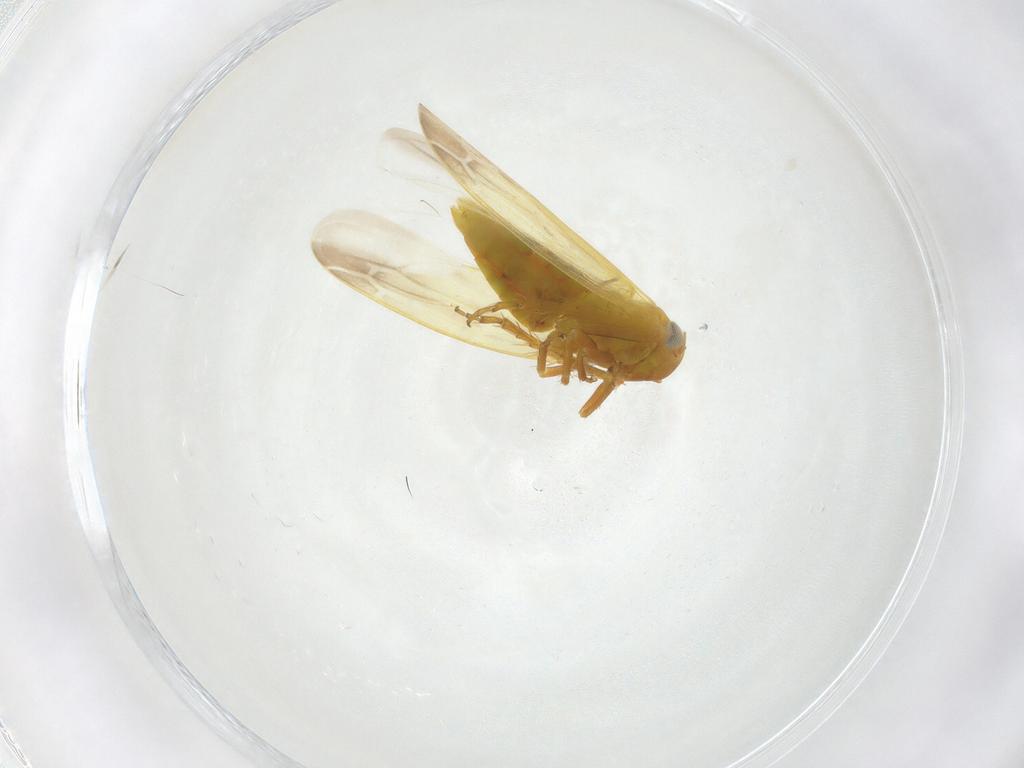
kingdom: Animalia
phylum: Arthropoda
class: Insecta
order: Hemiptera
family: Cicadellidae
